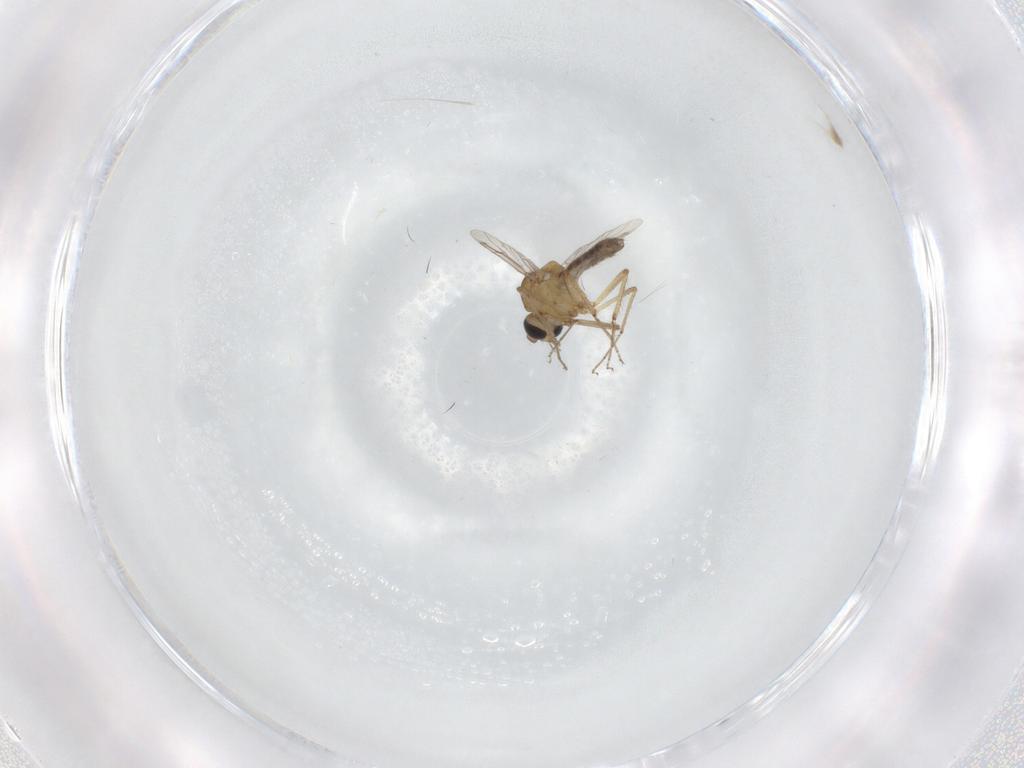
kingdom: Animalia
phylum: Arthropoda
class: Insecta
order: Diptera
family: Ceratopogonidae
